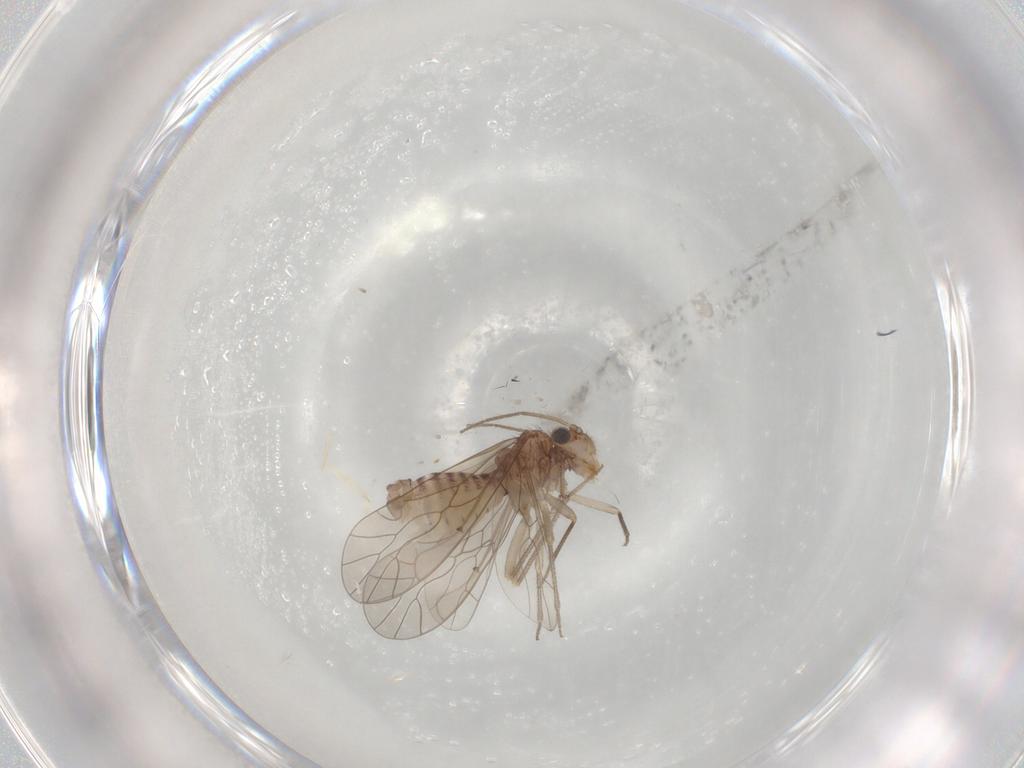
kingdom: Animalia
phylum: Arthropoda
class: Insecta
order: Psocodea
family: Caeciliusidae
